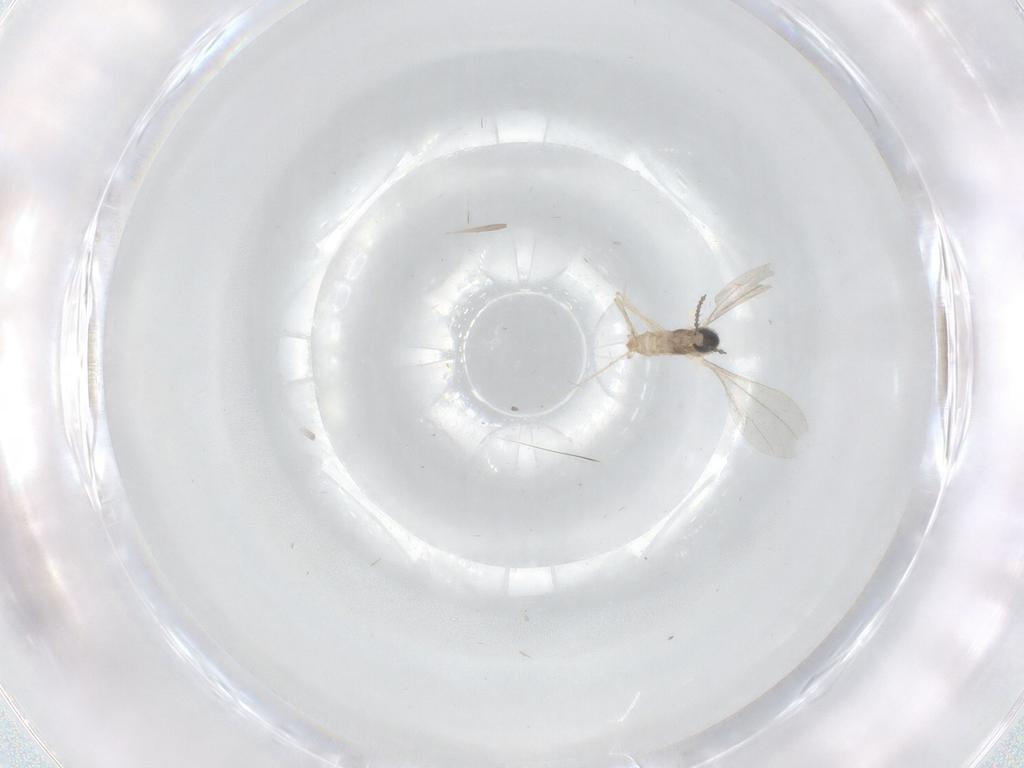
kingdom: Animalia
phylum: Arthropoda
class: Insecta
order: Diptera
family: Cecidomyiidae
